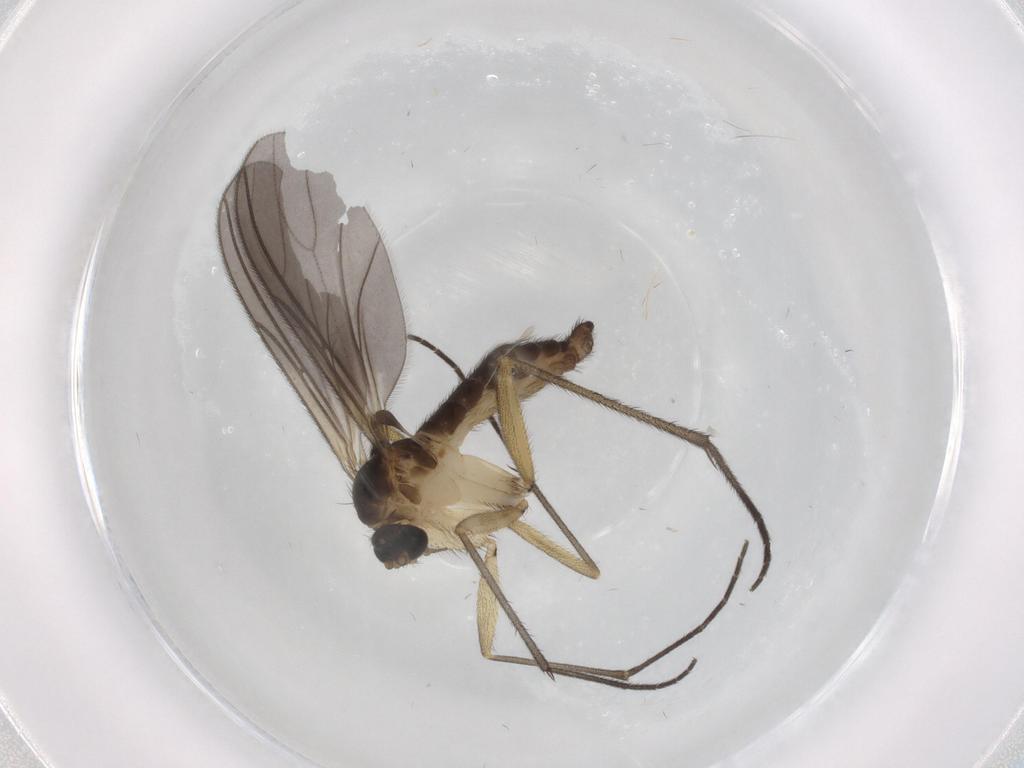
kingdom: Animalia
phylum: Arthropoda
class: Insecta
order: Diptera
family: Sciaridae
